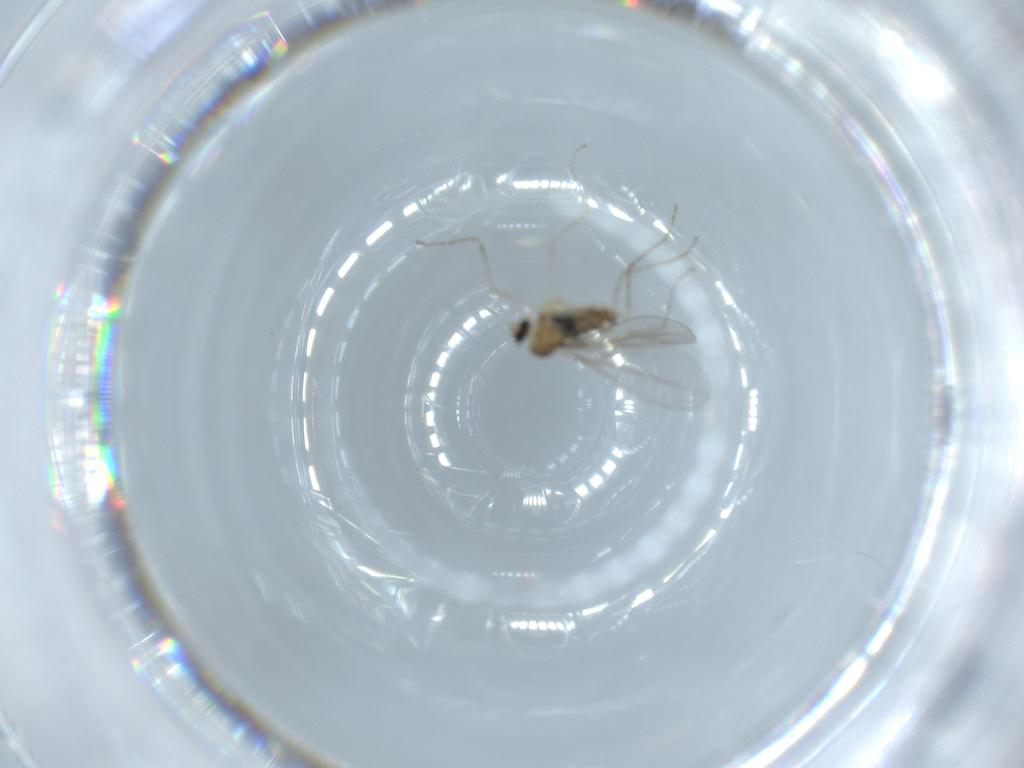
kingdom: Animalia
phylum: Arthropoda
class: Insecta
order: Diptera
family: Cecidomyiidae
